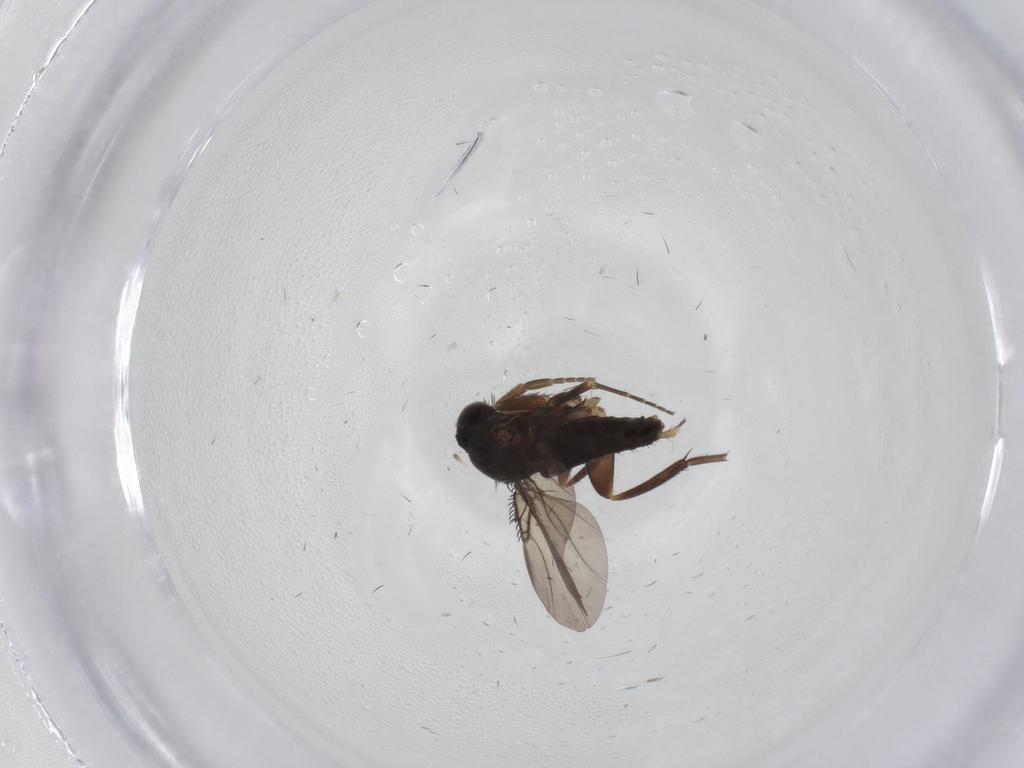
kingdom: Animalia
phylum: Arthropoda
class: Insecta
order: Diptera
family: Phoridae
